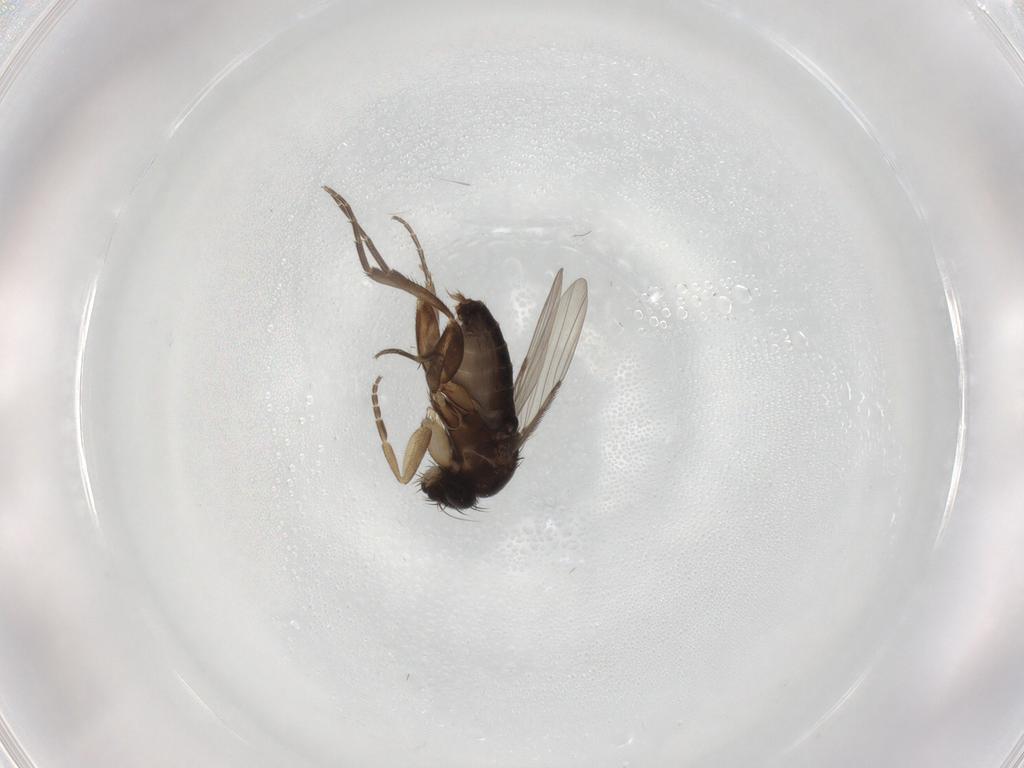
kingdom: Animalia
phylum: Arthropoda
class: Insecta
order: Diptera
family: Phoridae
